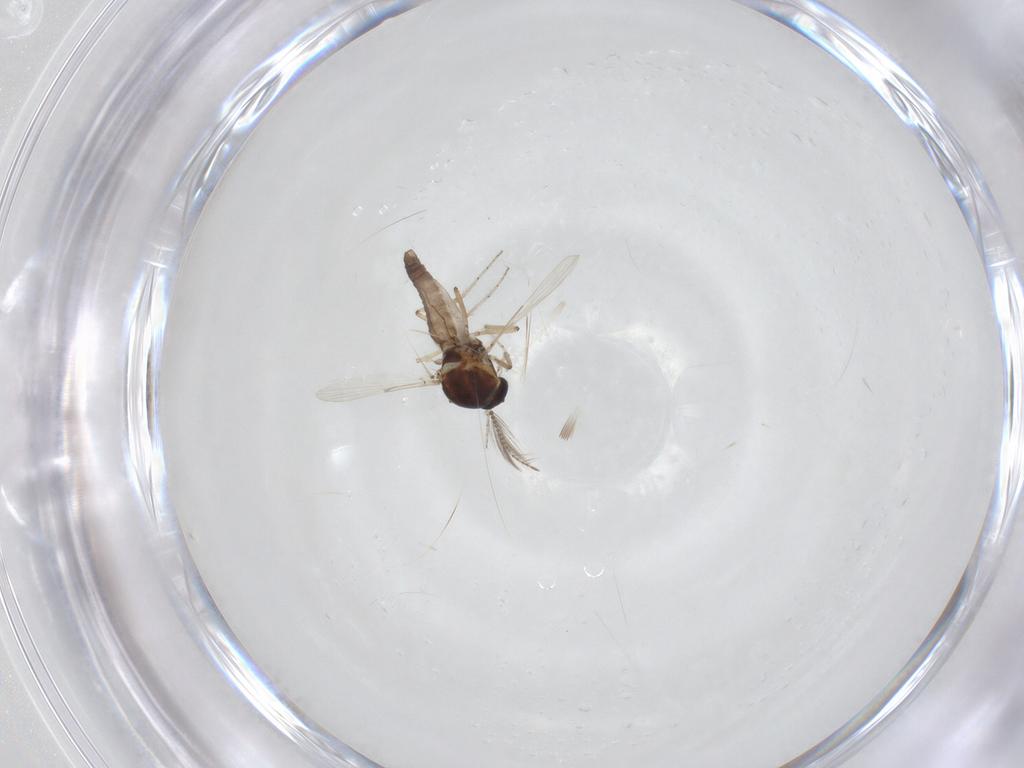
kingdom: Animalia
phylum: Arthropoda
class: Insecta
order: Diptera
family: Ceratopogonidae
